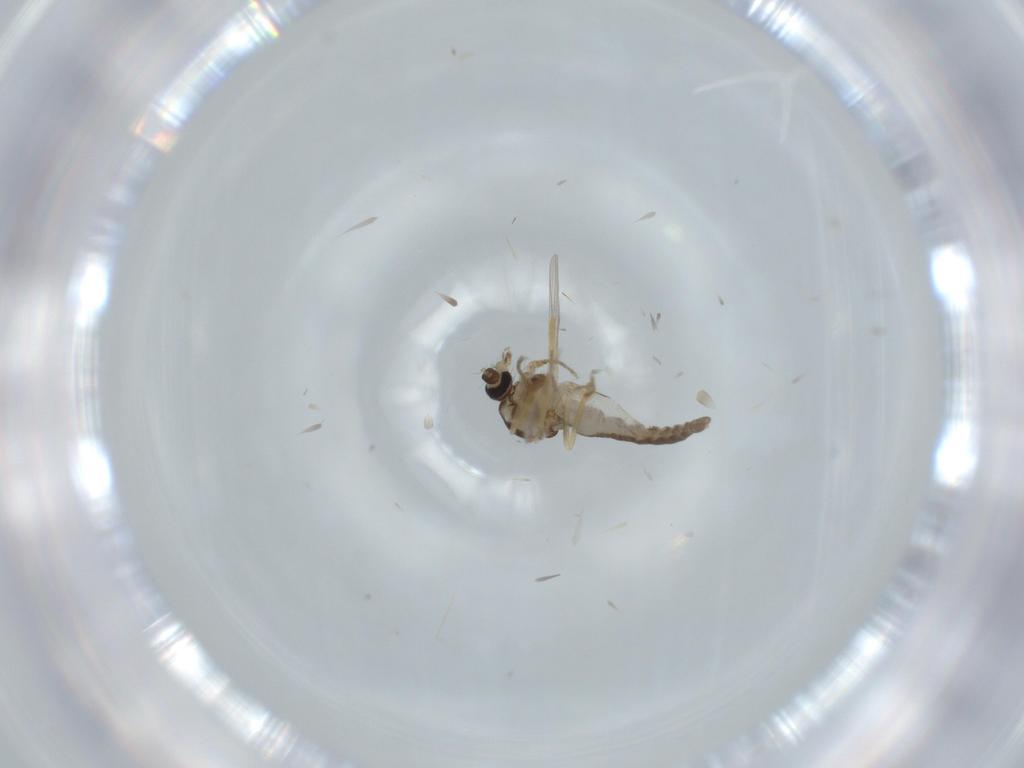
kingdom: Animalia
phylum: Arthropoda
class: Insecta
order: Diptera
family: Ceratopogonidae
